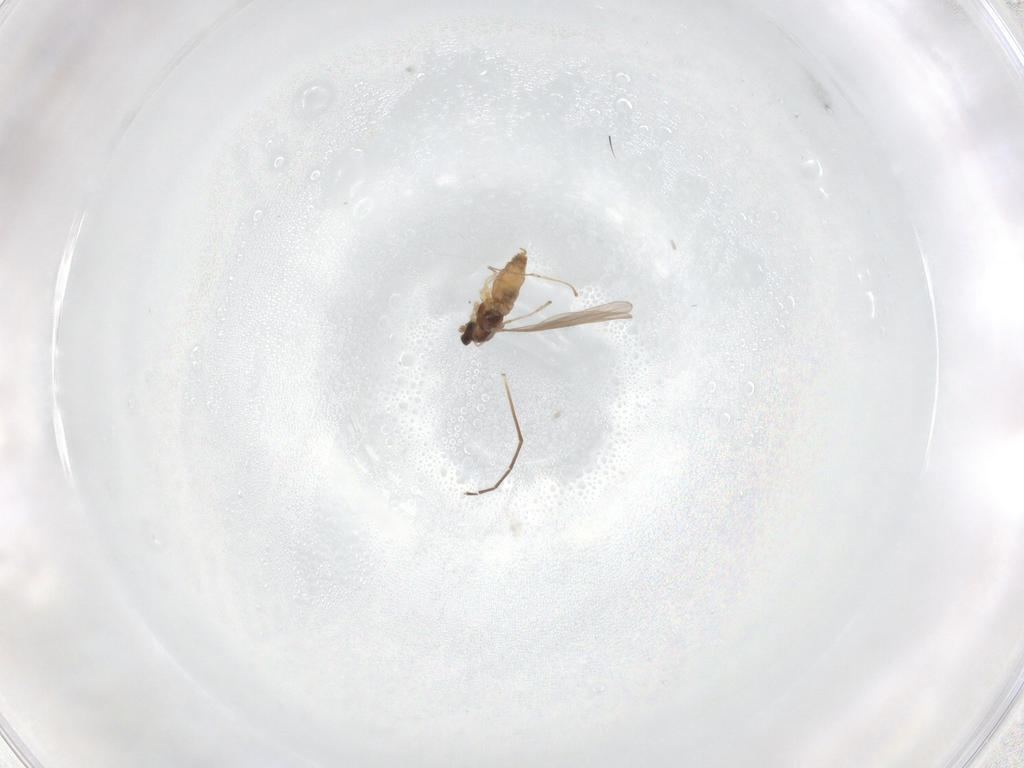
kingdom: Animalia
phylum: Arthropoda
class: Insecta
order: Diptera
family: Cecidomyiidae
